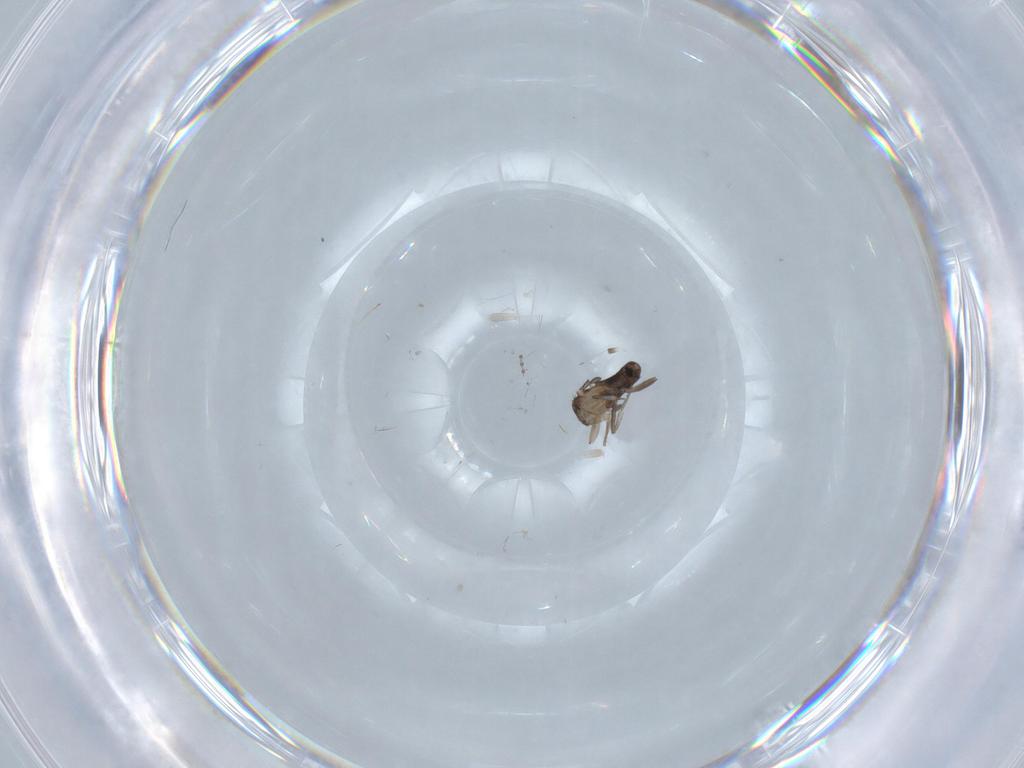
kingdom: Animalia
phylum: Arthropoda
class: Insecta
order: Diptera
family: Cecidomyiidae
